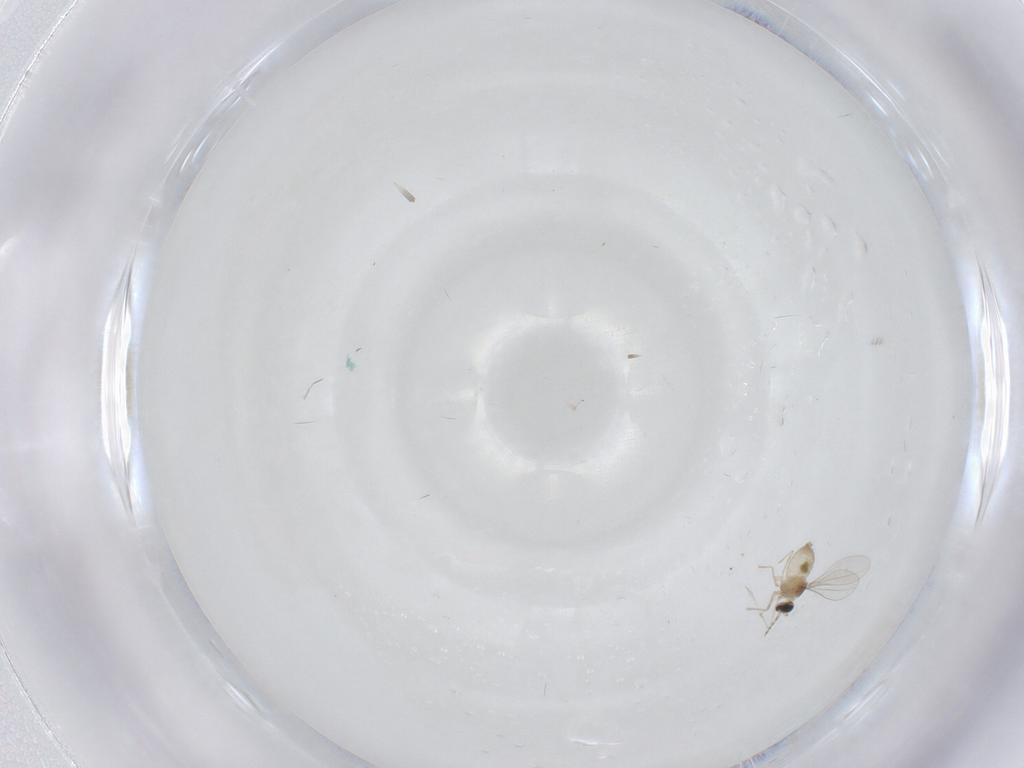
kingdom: Animalia
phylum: Arthropoda
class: Insecta
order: Diptera
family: Cecidomyiidae
